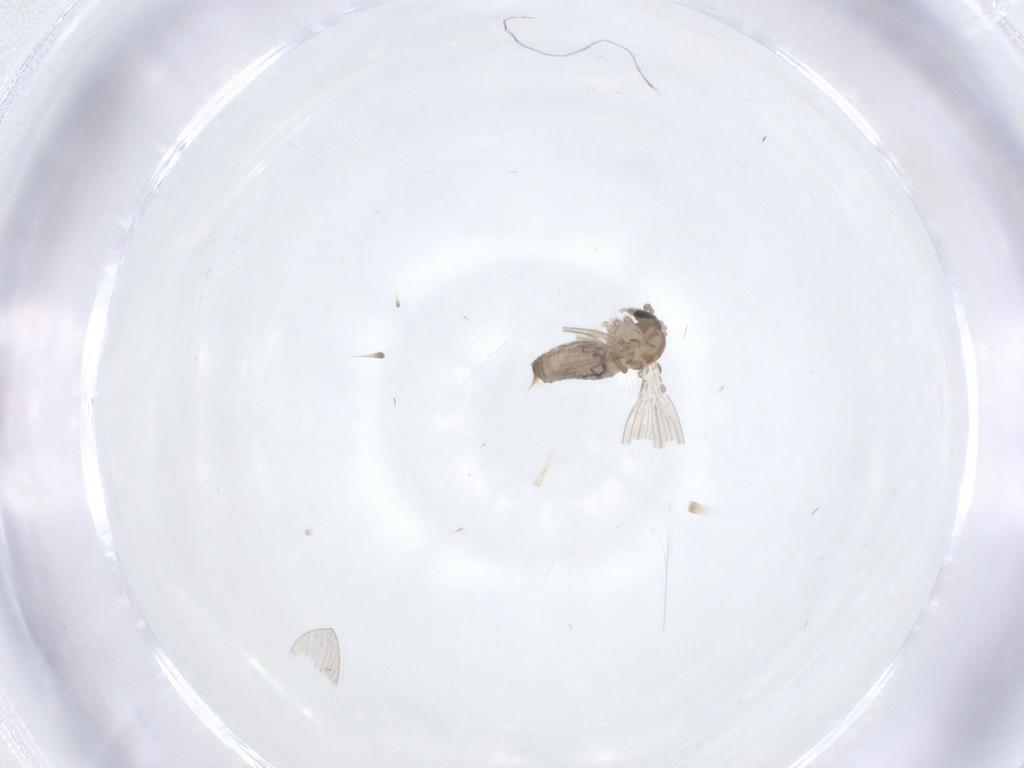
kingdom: Animalia
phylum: Arthropoda
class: Insecta
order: Diptera
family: Psychodidae
